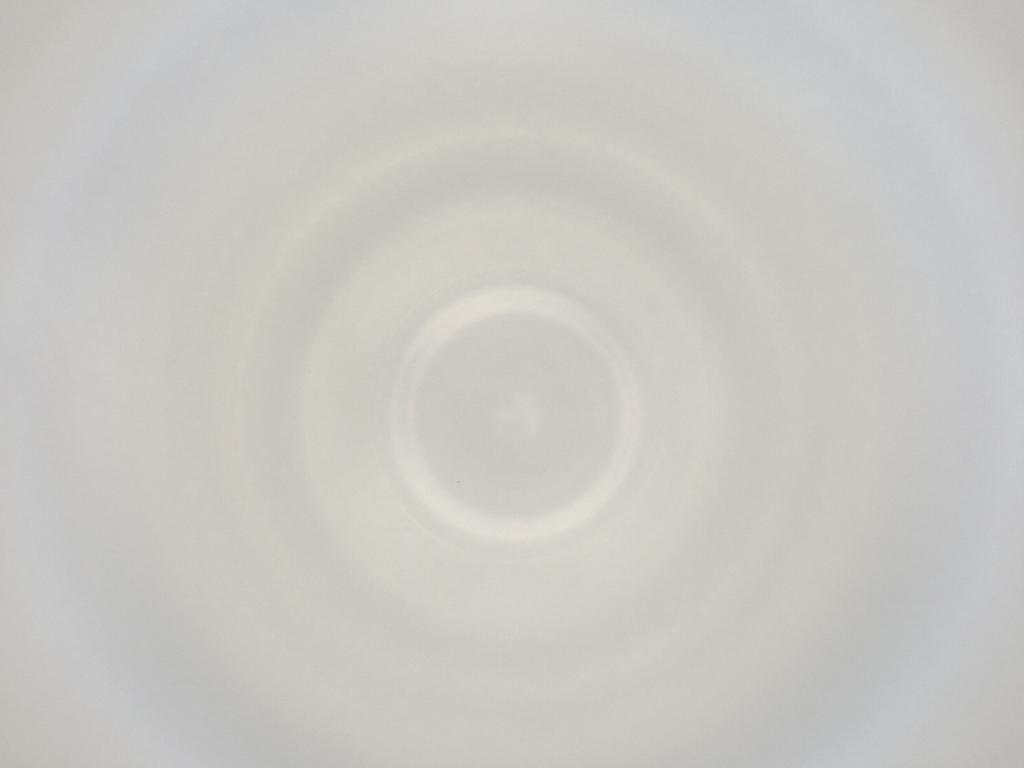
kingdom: Animalia
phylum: Arthropoda
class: Insecta
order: Diptera
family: Cecidomyiidae
